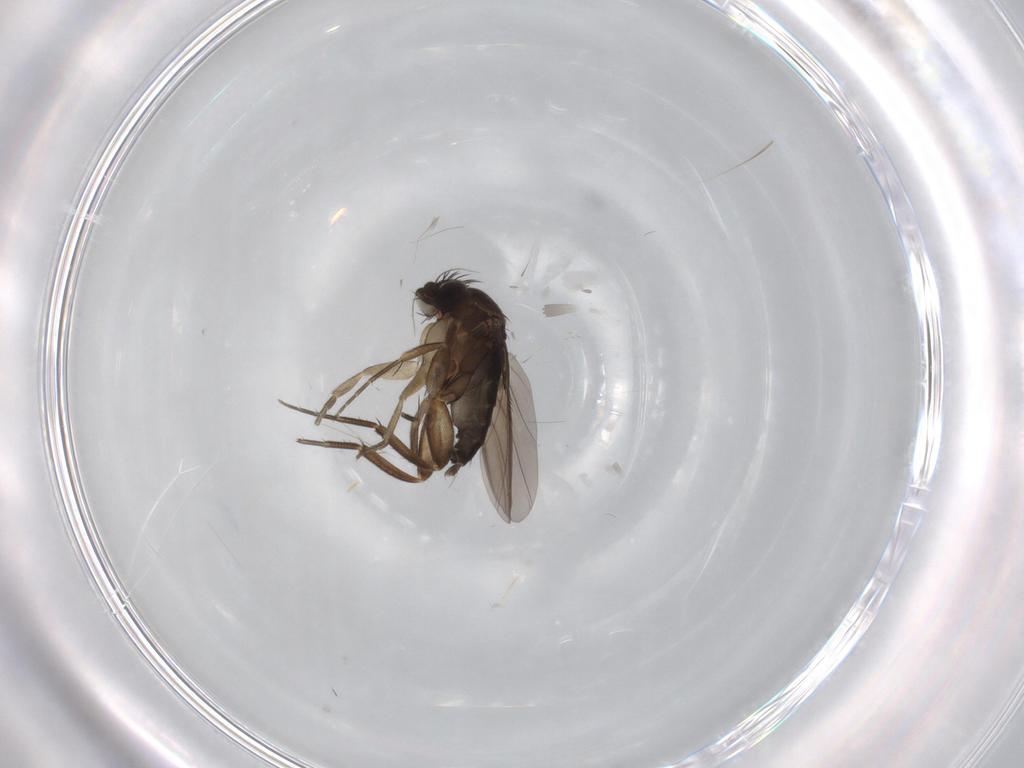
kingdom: Animalia
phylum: Arthropoda
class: Insecta
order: Diptera
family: Phoridae
